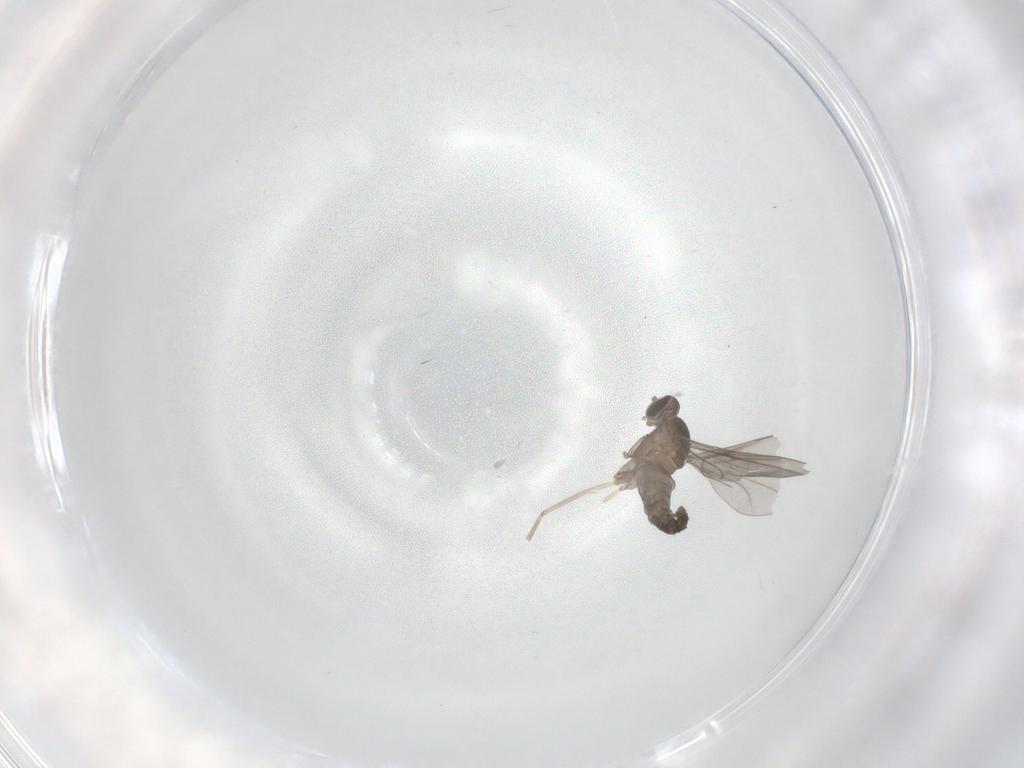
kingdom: Animalia
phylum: Arthropoda
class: Insecta
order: Diptera
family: Cecidomyiidae
